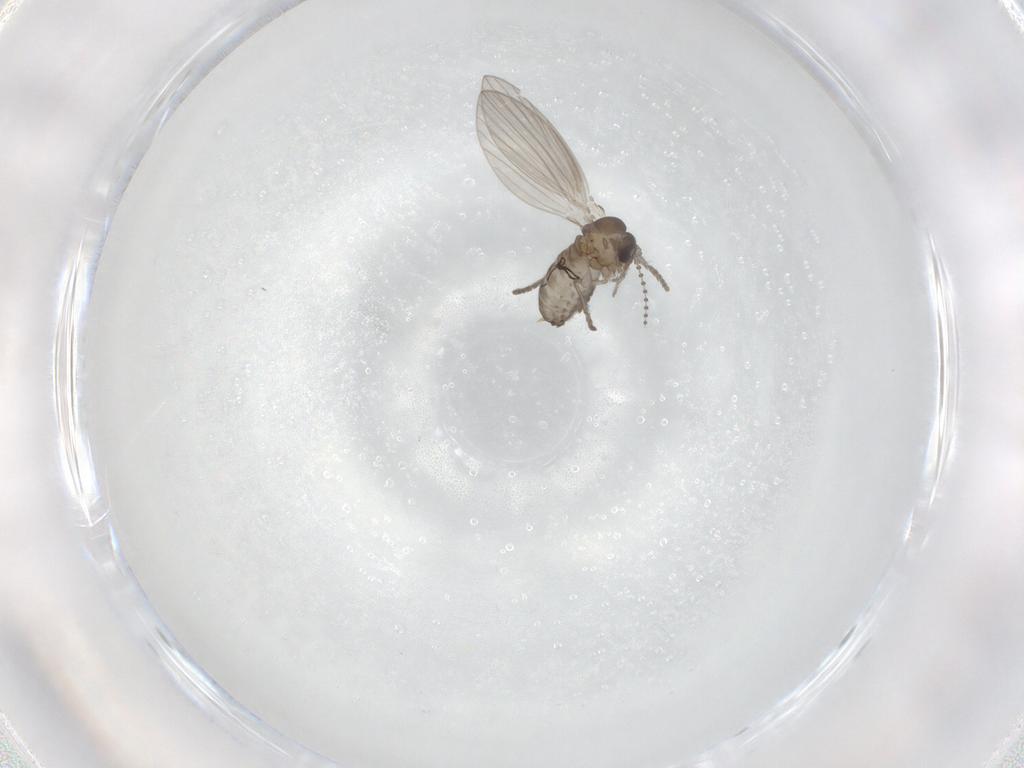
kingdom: Animalia
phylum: Arthropoda
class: Insecta
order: Diptera
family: Psychodidae
